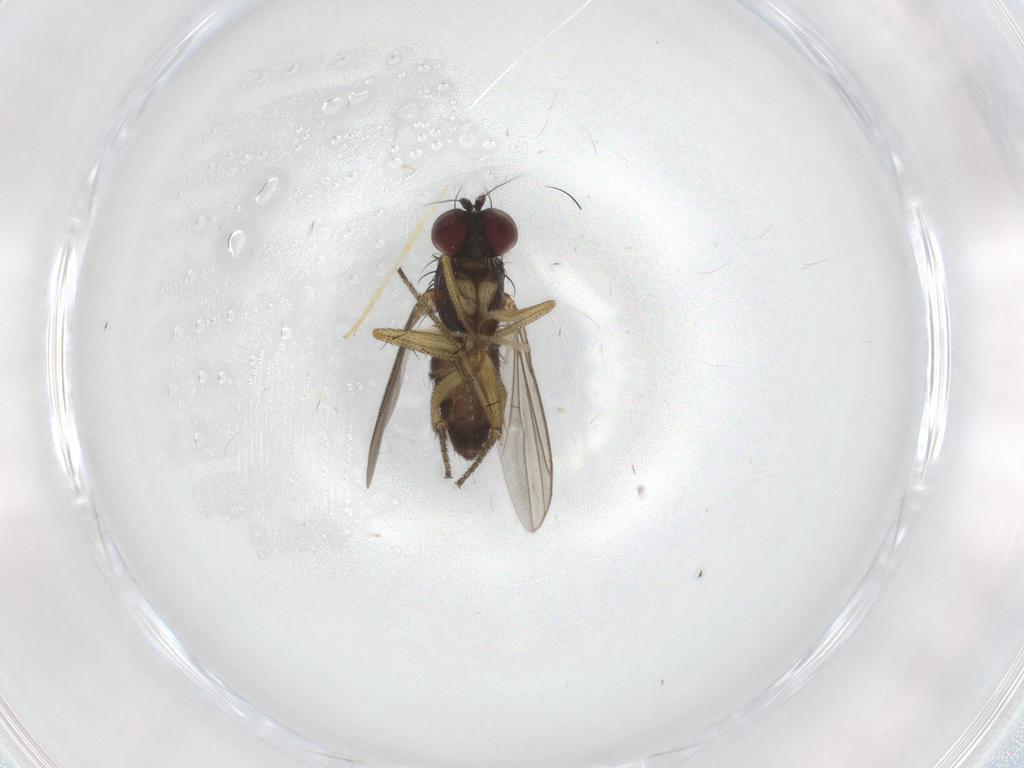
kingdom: Animalia
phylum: Arthropoda
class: Insecta
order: Diptera
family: Dolichopodidae
